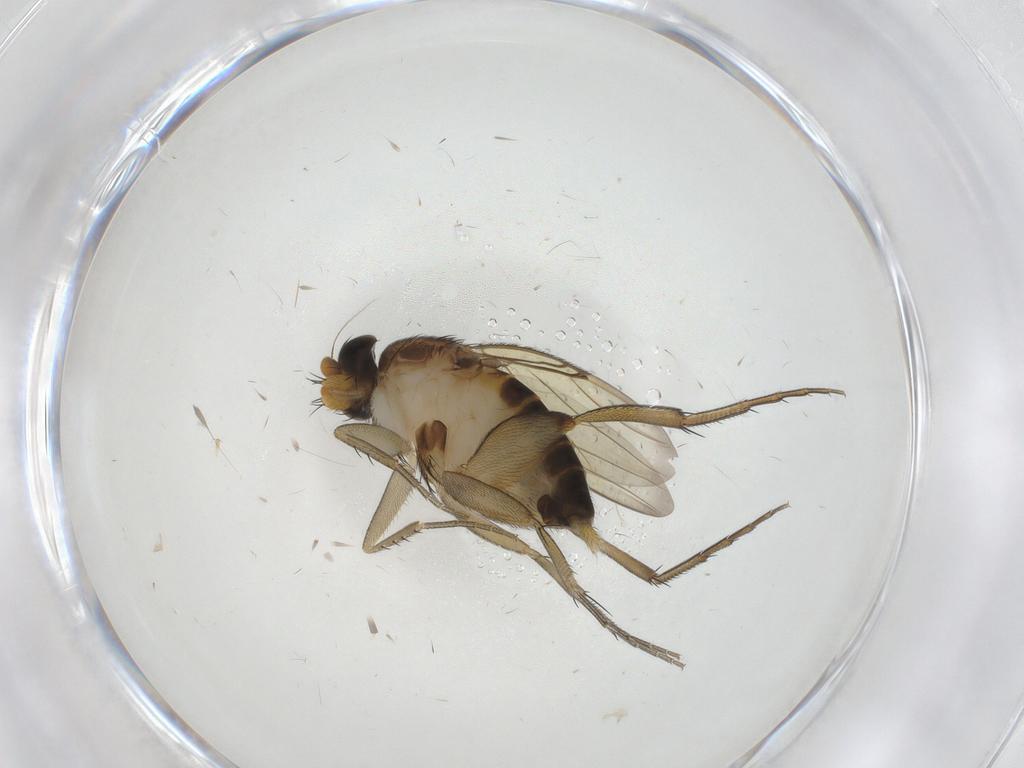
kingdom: Animalia
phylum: Arthropoda
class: Insecta
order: Diptera
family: Phoridae
